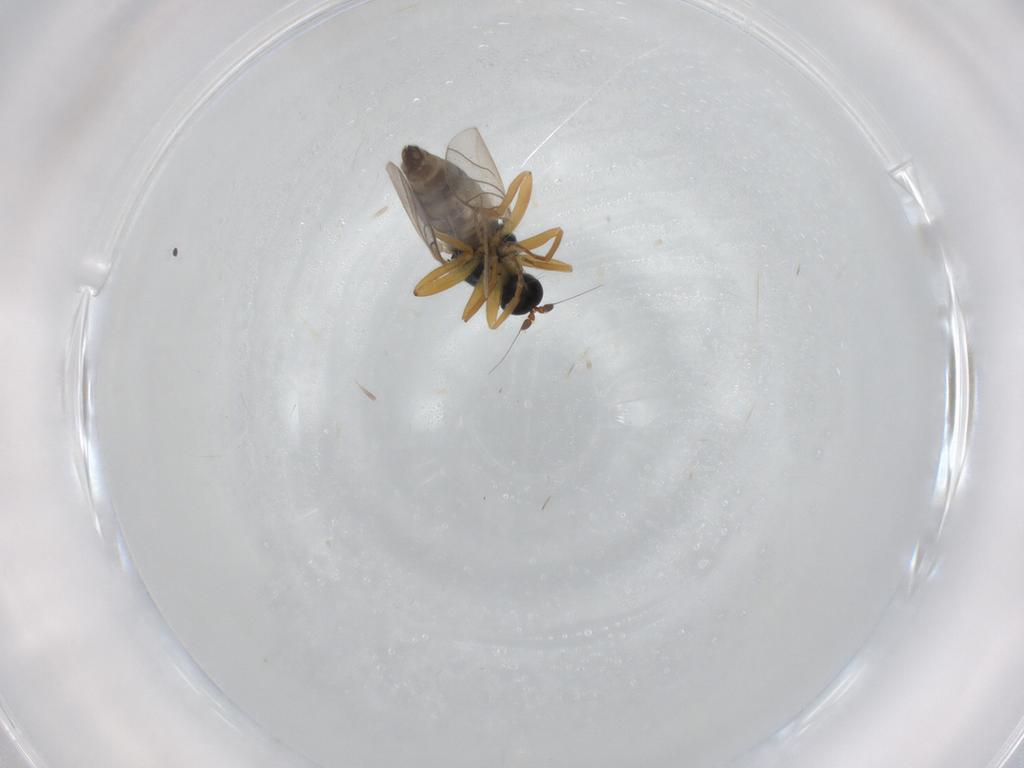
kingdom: Animalia
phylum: Arthropoda
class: Insecta
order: Diptera
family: Hybotidae
